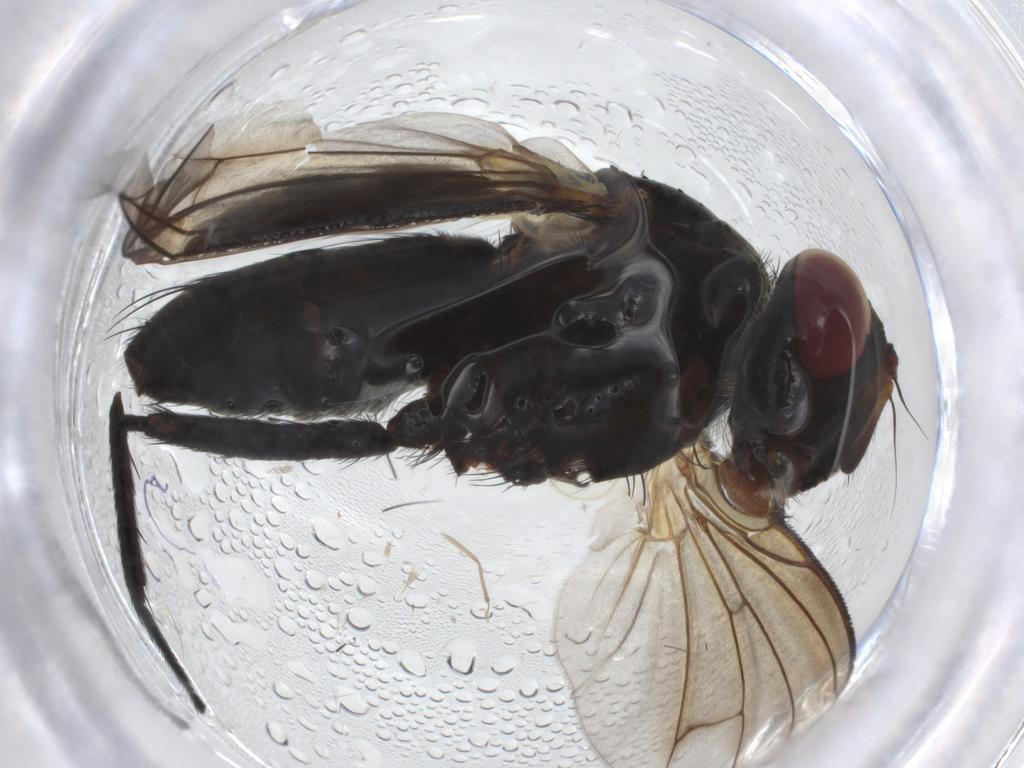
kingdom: Animalia
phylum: Arthropoda
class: Insecta
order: Diptera
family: Tachinidae
